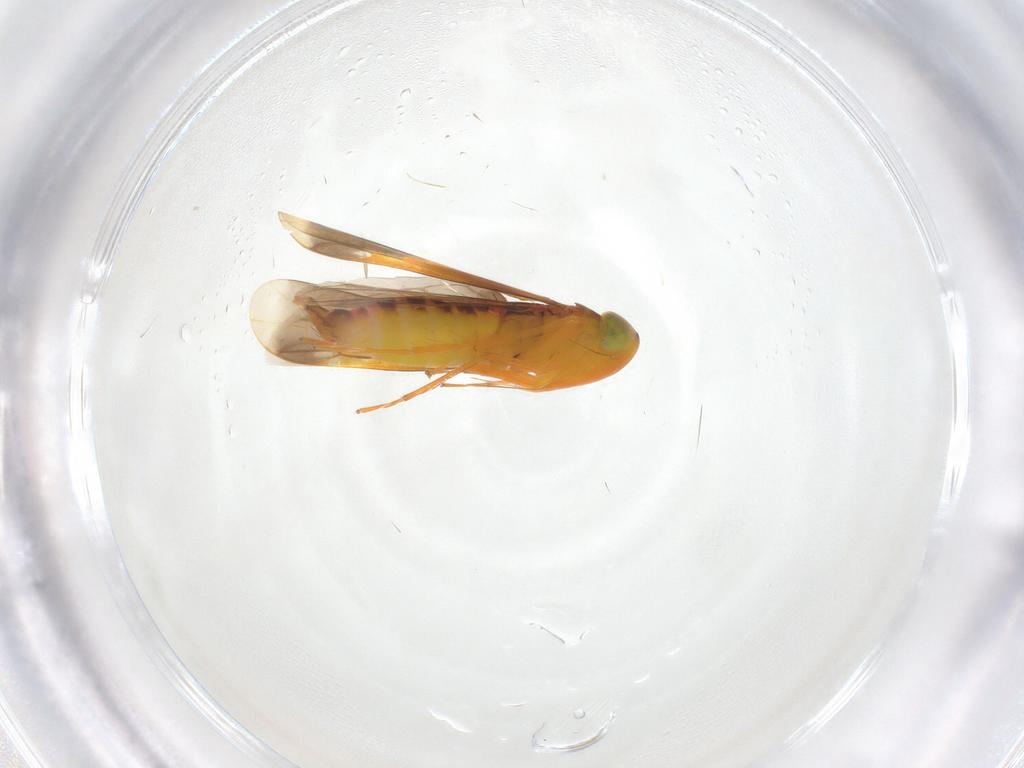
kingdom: Animalia
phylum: Arthropoda
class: Insecta
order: Hemiptera
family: Cicadellidae
